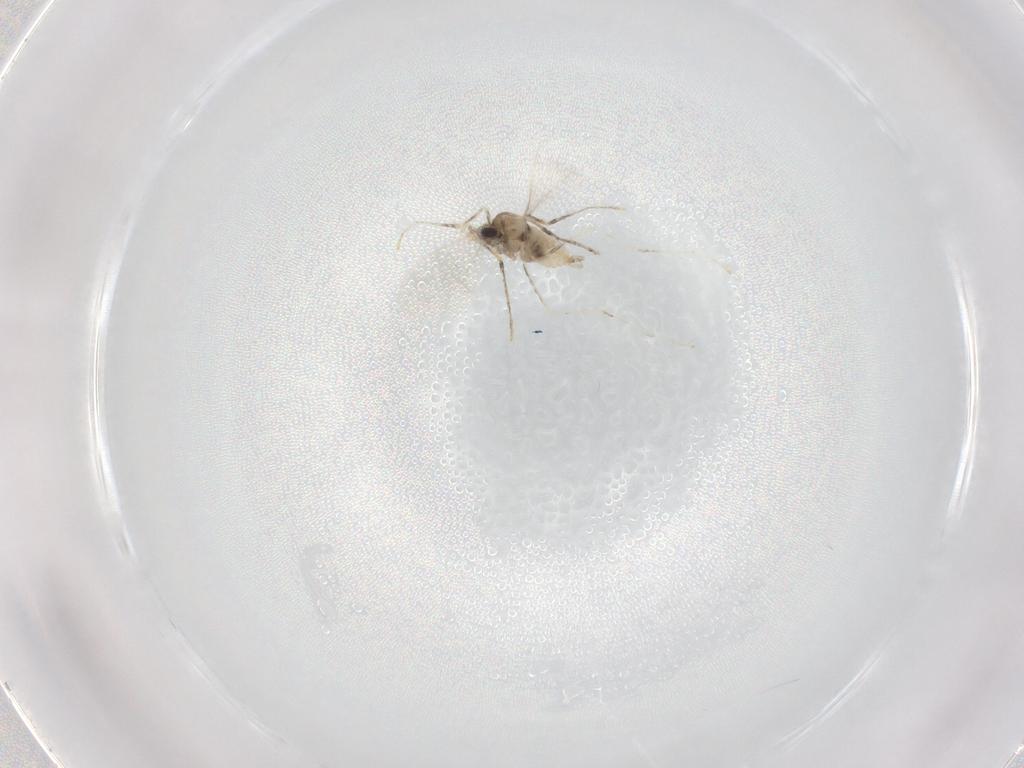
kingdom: Animalia
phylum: Arthropoda
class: Insecta
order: Diptera
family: Cecidomyiidae
